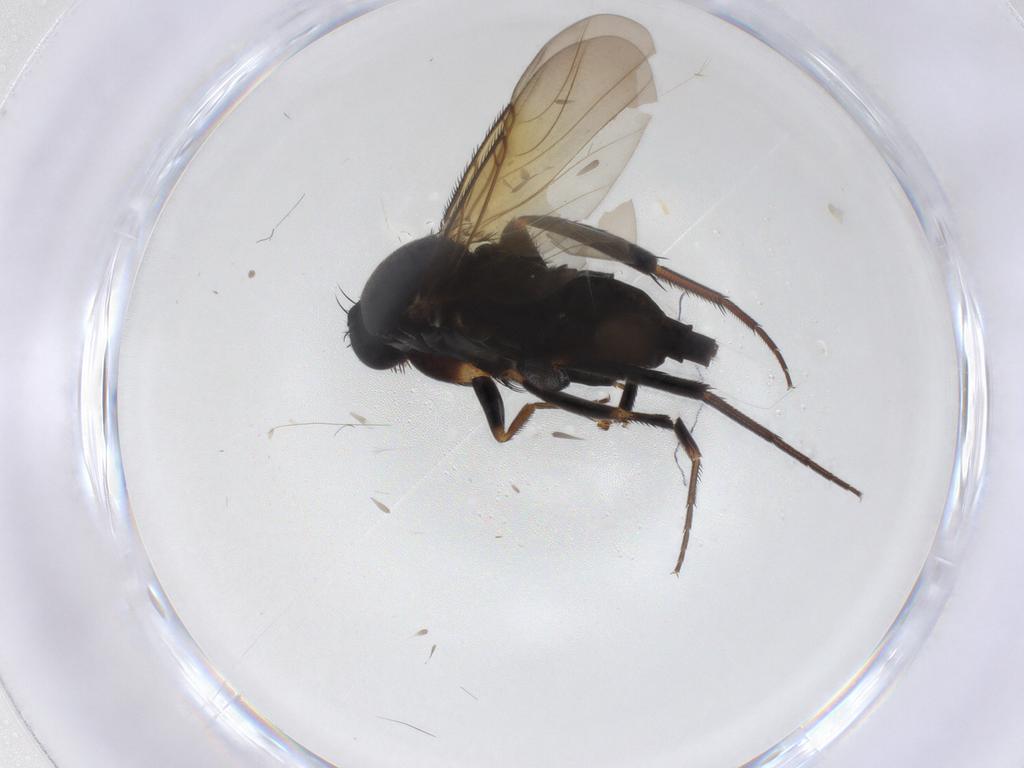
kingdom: Animalia
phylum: Arthropoda
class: Insecta
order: Diptera
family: Phoridae
